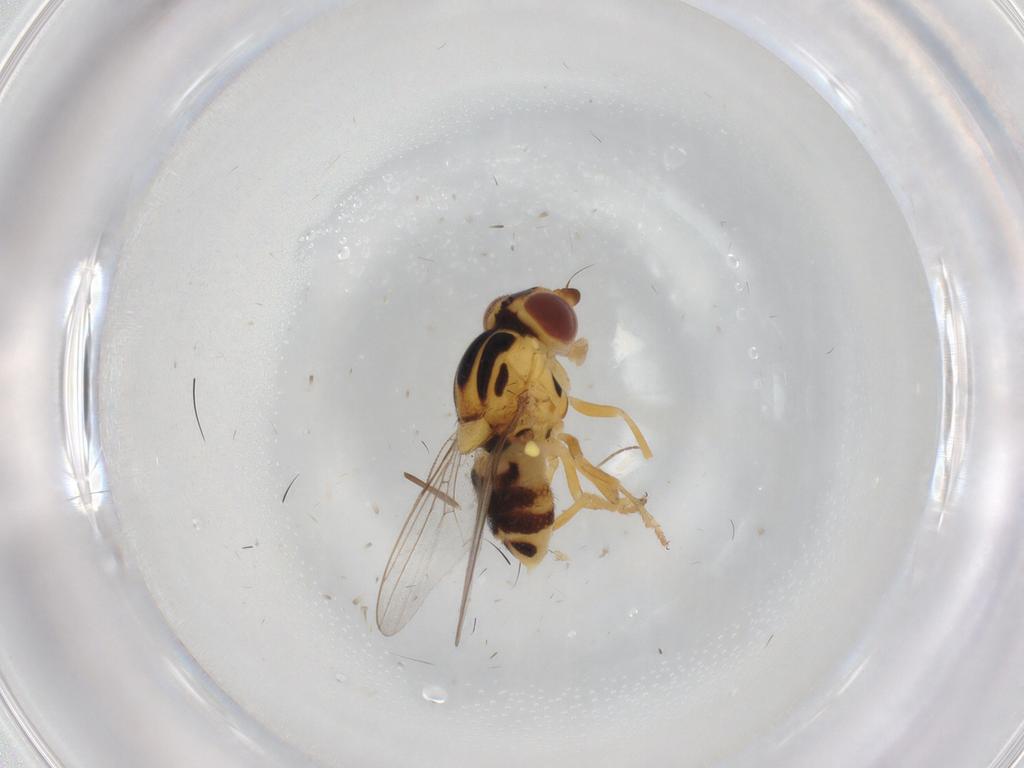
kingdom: Animalia
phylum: Arthropoda
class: Insecta
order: Diptera
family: Chloropidae
